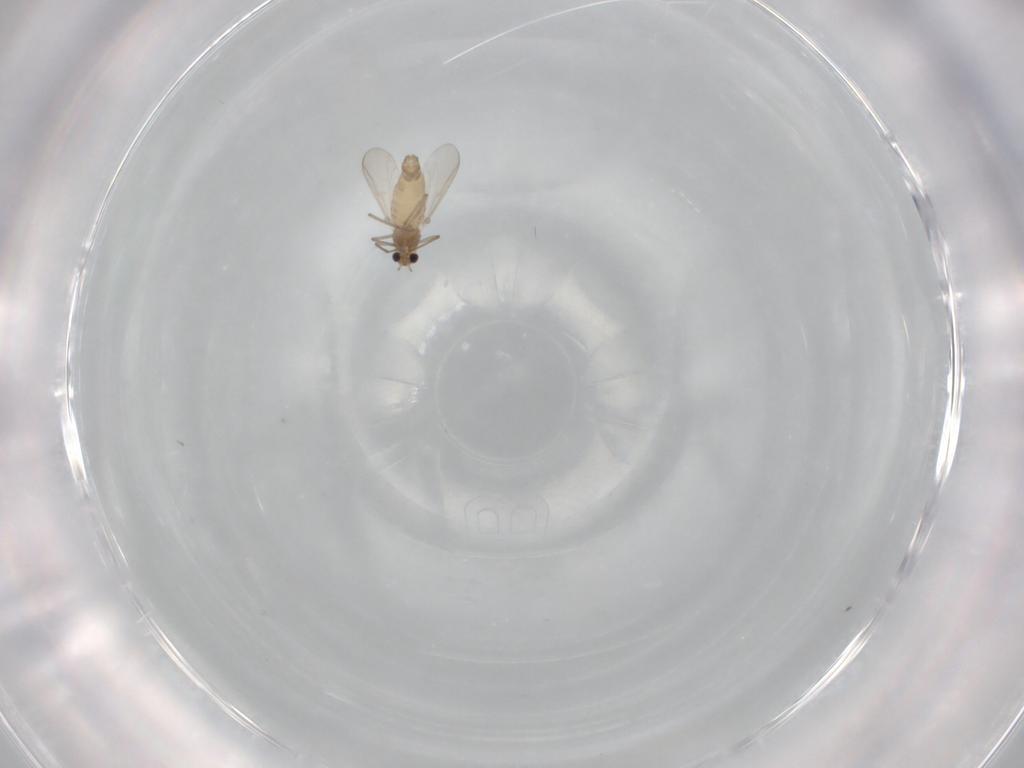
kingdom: Animalia
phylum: Arthropoda
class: Insecta
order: Diptera
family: Chironomidae
